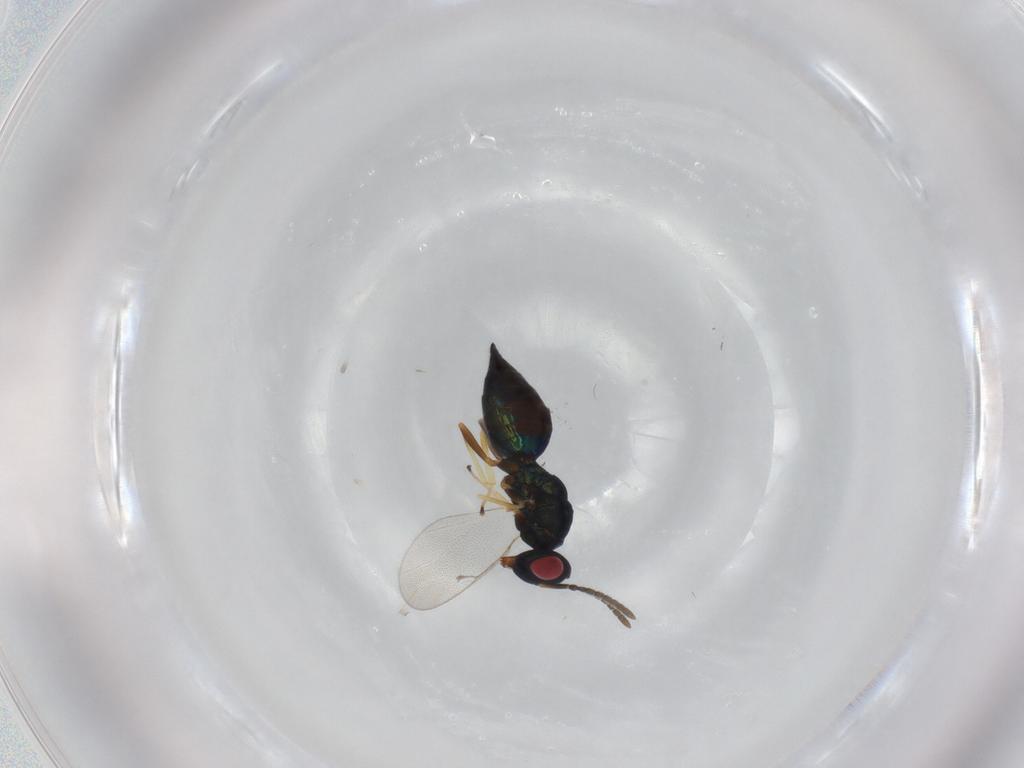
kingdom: Animalia
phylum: Arthropoda
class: Insecta
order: Hymenoptera
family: Pteromalidae
